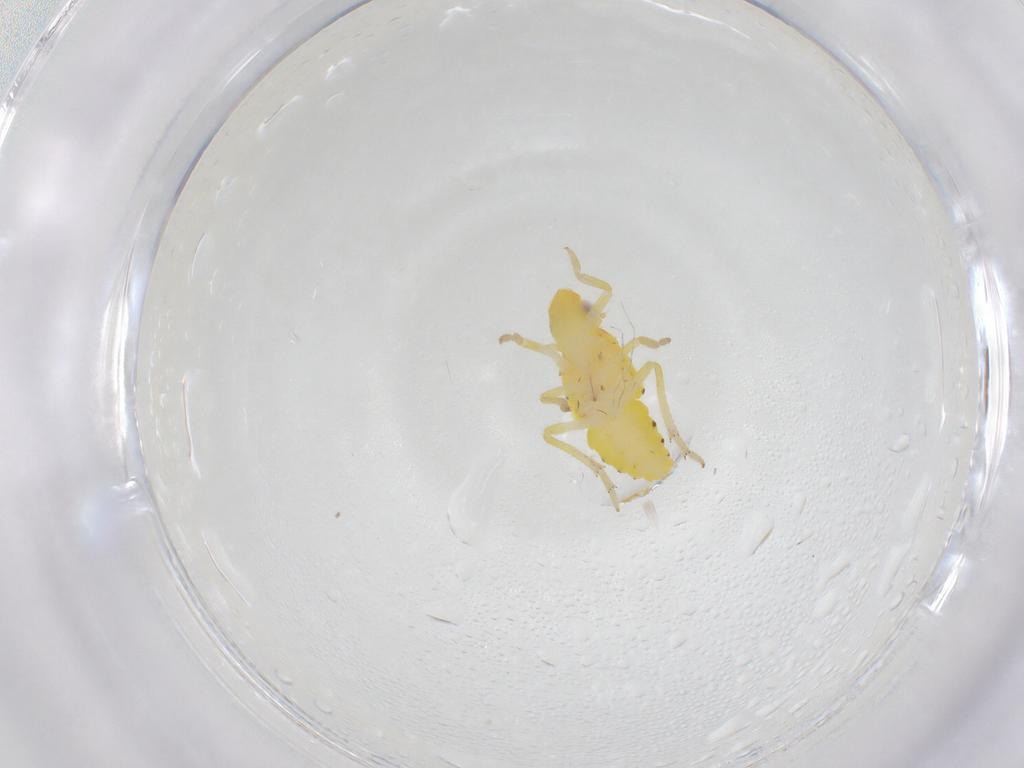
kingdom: Animalia
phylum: Arthropoda
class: Insecta
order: Hemiptera
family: Tropiduchidae
